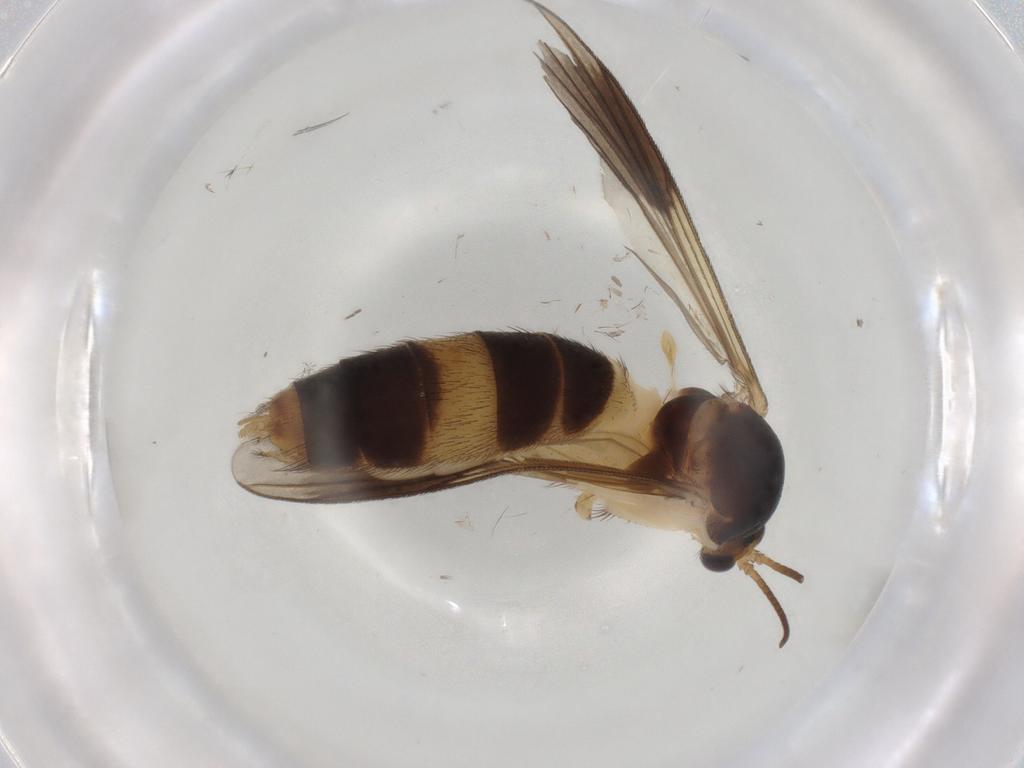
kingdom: Animalia
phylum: Arthropoda
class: Insecta
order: Diptera
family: Mycetophilidae
